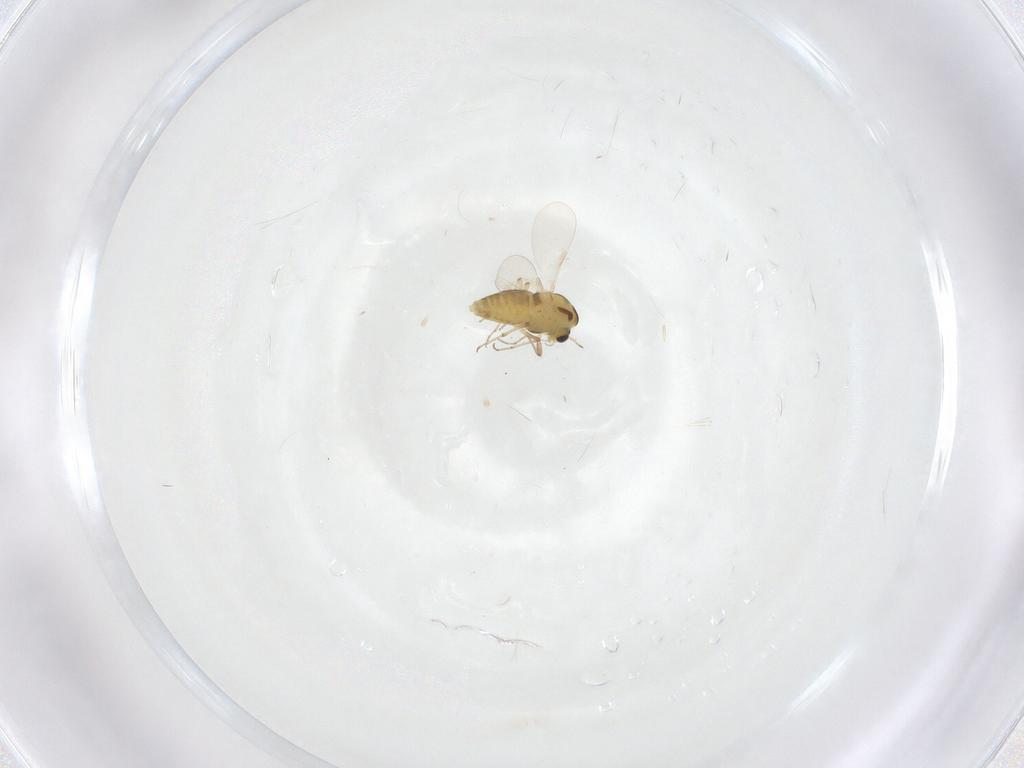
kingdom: Animalia
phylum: Arthropoda
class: Insecta
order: Diptera
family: Chironomidae
